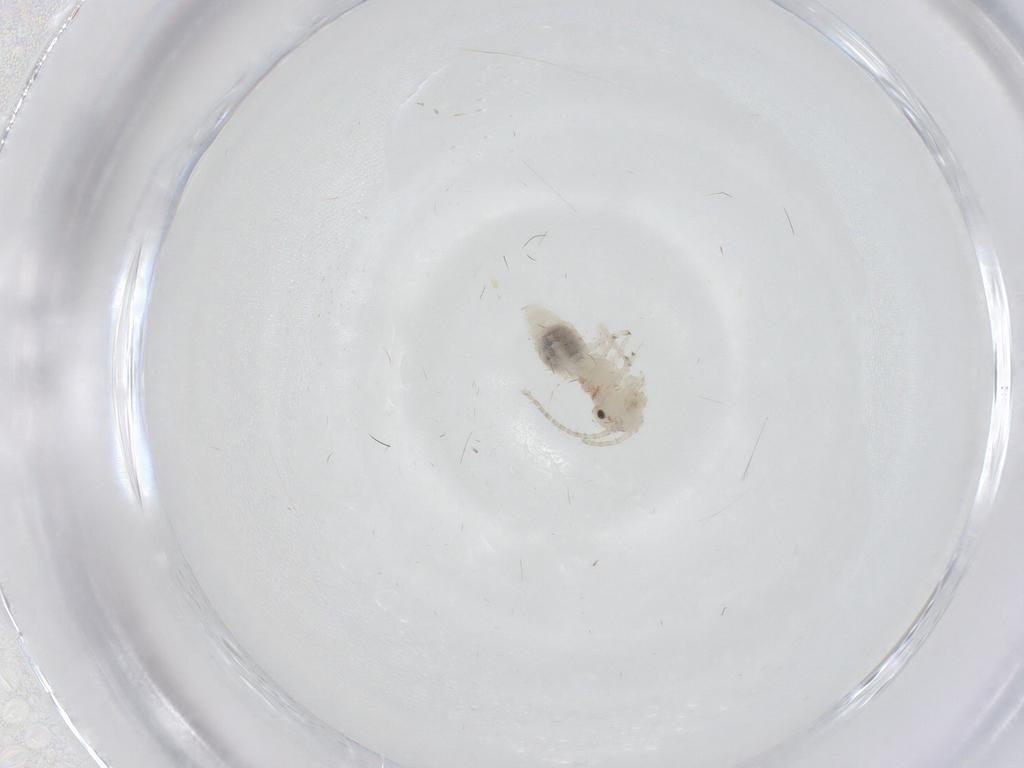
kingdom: Animalia
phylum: Arthropoda
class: Insecta
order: Psocodea
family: Amphipsocidae
